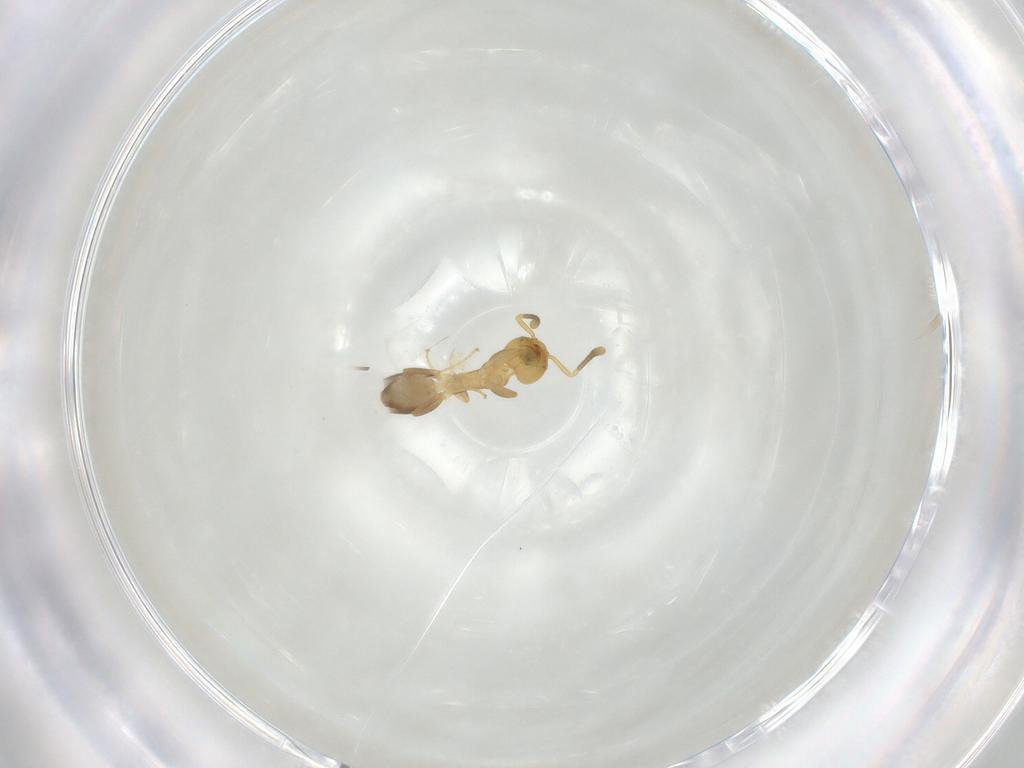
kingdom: Animalia
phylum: Arthropoda
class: Insecta
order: Hymenoptera
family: Formicidae
